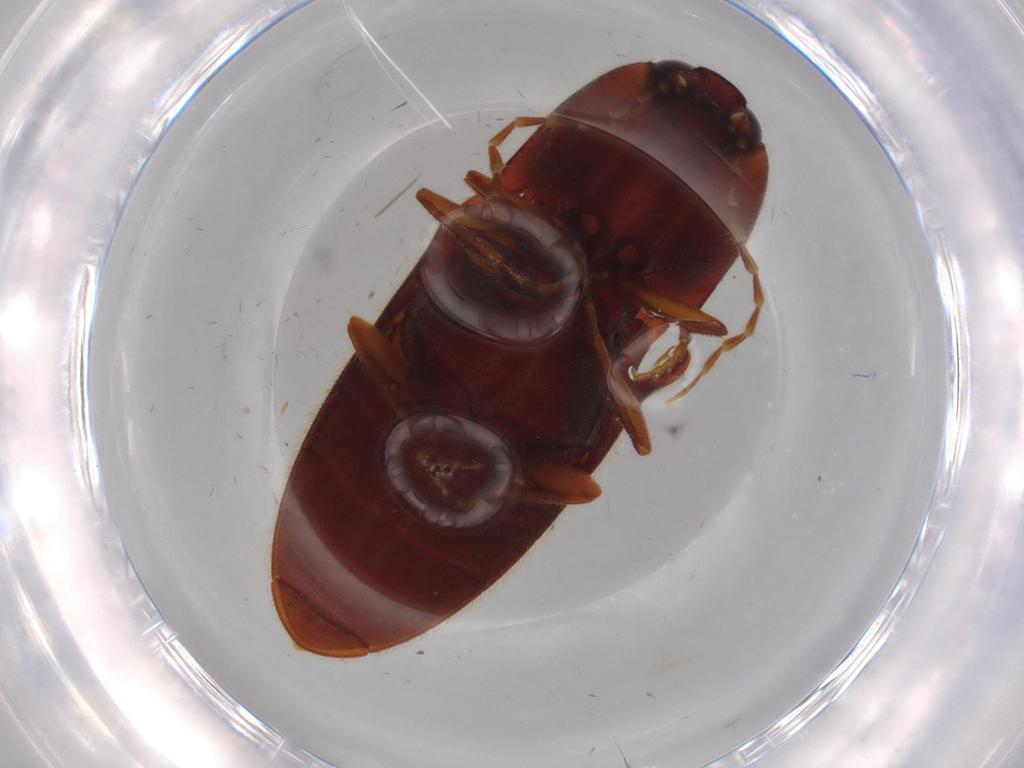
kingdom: Animalia
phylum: Arthropoda
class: Insecta
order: Coleoptera
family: Elateridae
